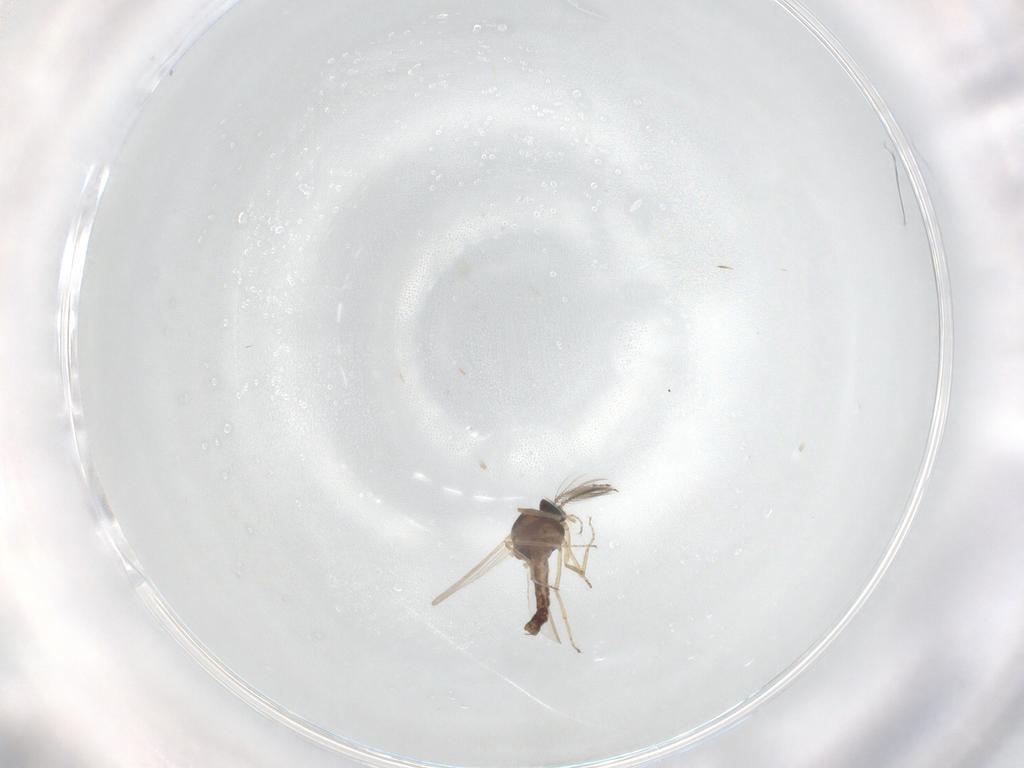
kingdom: Animalia
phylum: Arthropoda
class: Insecta
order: Diptera
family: Ceratopogonidae
